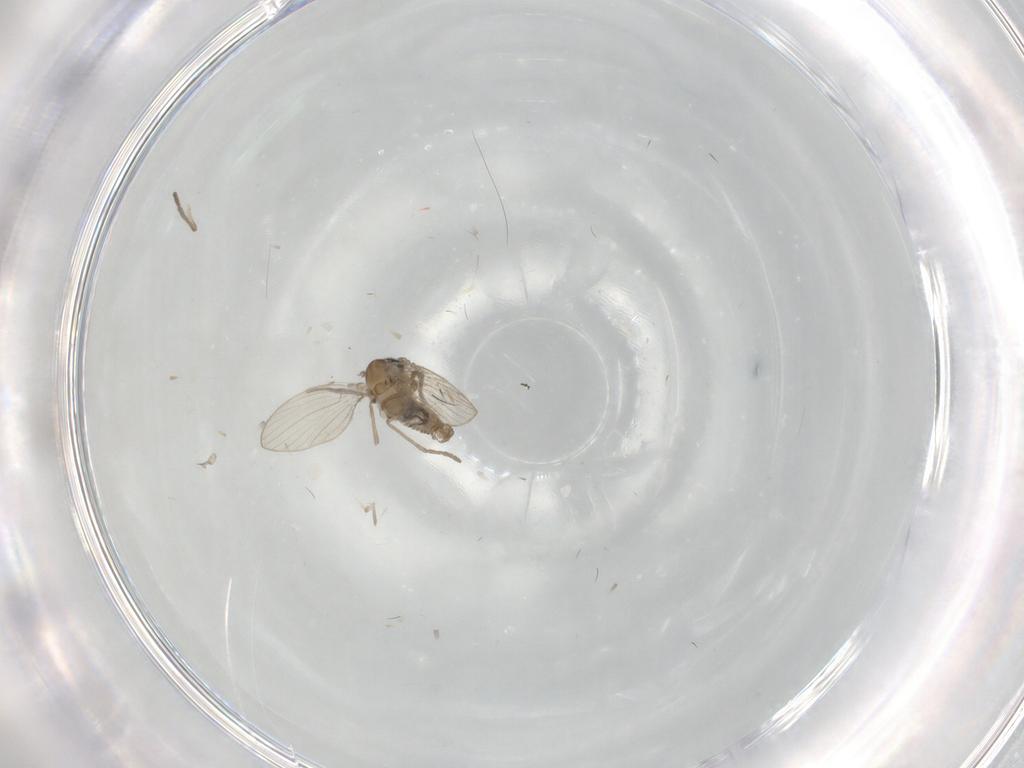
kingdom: Animalia
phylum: Arthropoda
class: Insecta
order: Diptera
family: Psychodidae
